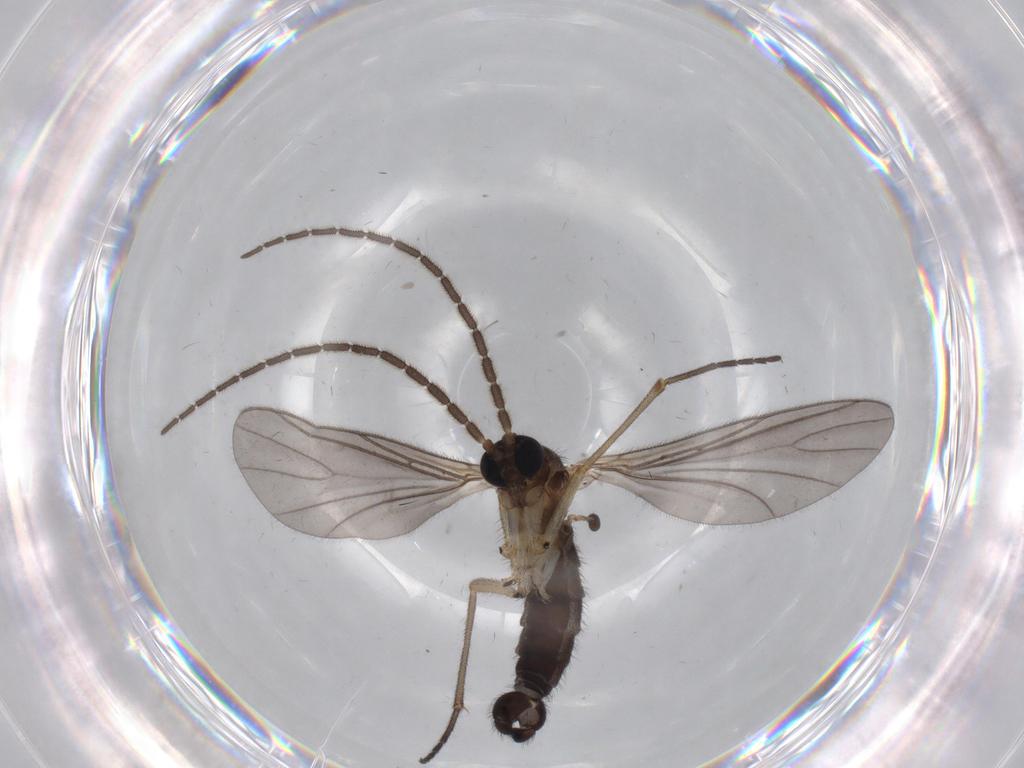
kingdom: Animalia
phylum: Arthropoda
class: Insecta
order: Diptera
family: Sciaridae
